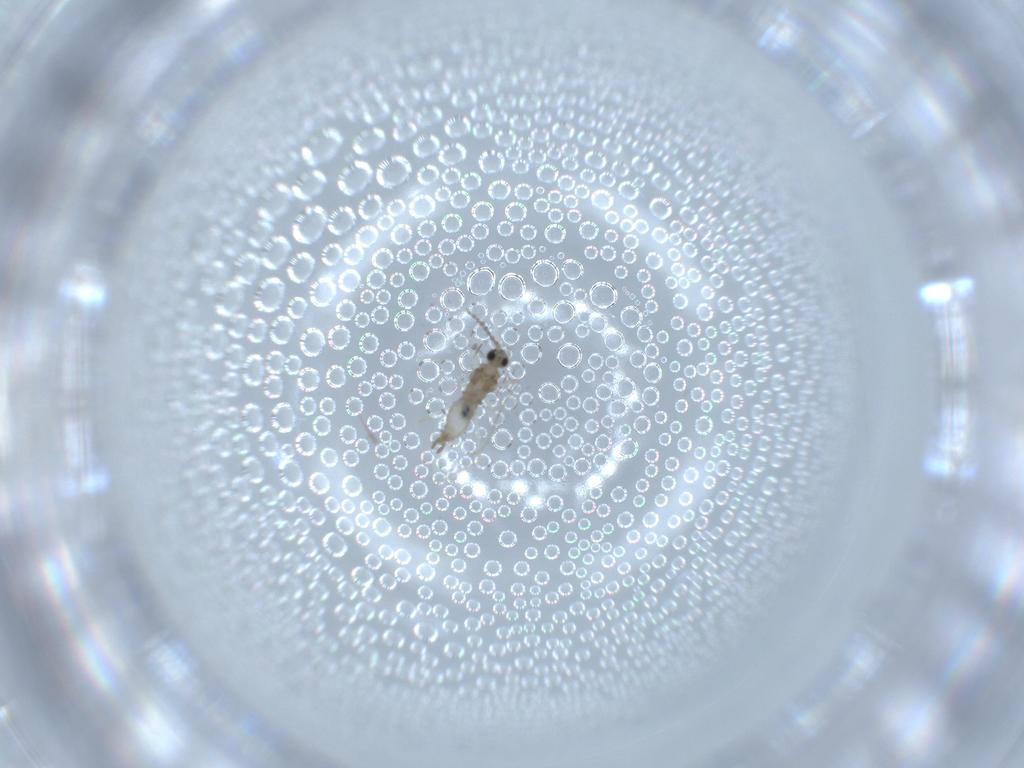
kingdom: Animalia
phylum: Arthropoda
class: Insecta
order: Diptera
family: Cecidomyiidae
